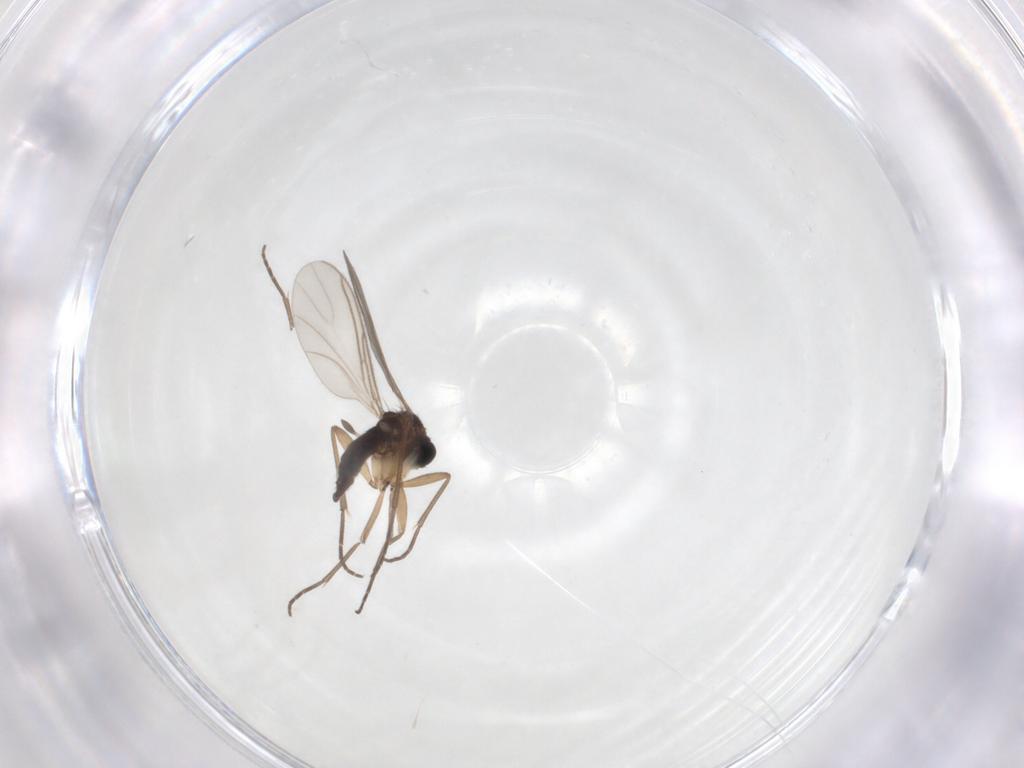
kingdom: Animalia
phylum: Arthropoda
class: Insecta
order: Diptera
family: Sciaridae
